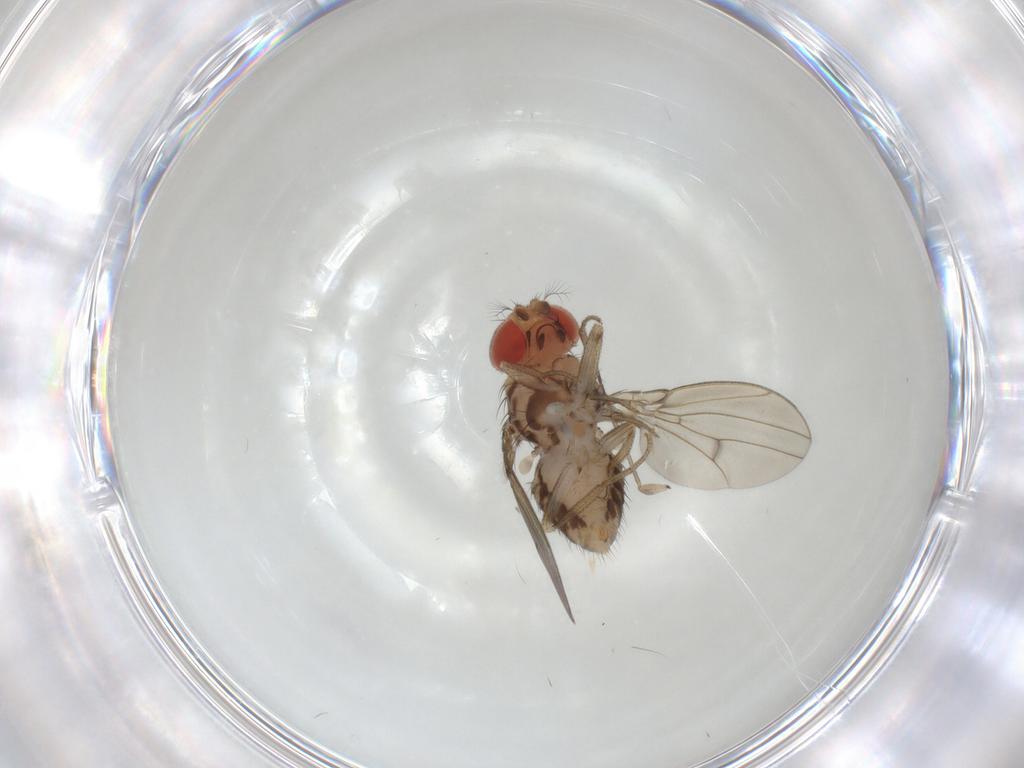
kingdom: Animalia
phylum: Arthropoda
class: Insecta
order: Diptera
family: Drosophilidae
